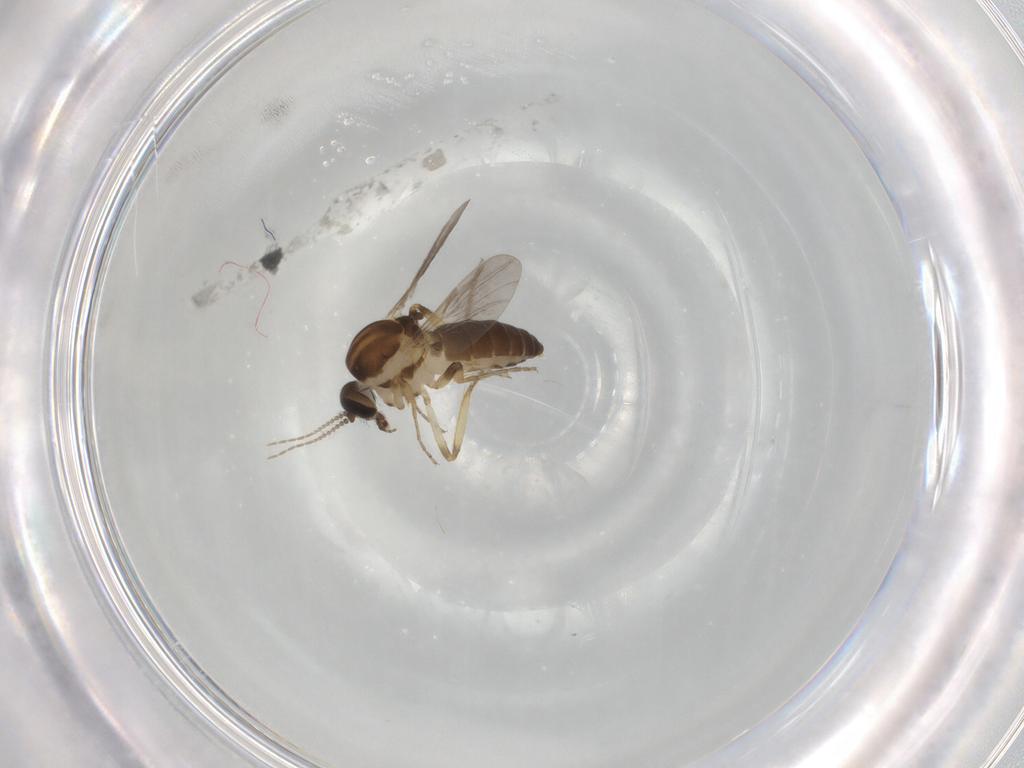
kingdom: Animalia
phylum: Arthropoda
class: Insecta
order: Diptera
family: Ceratopogonidae
